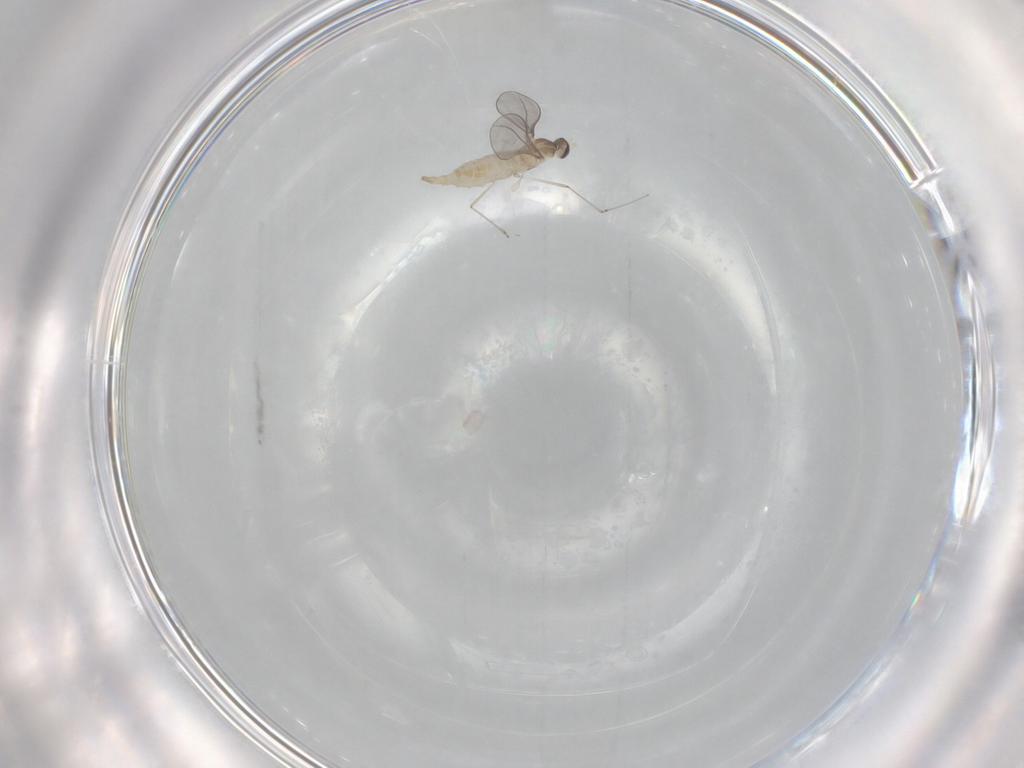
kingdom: Animalia
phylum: Arthropoda
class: Insecta
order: Diptera
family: Cecidomyiidae
